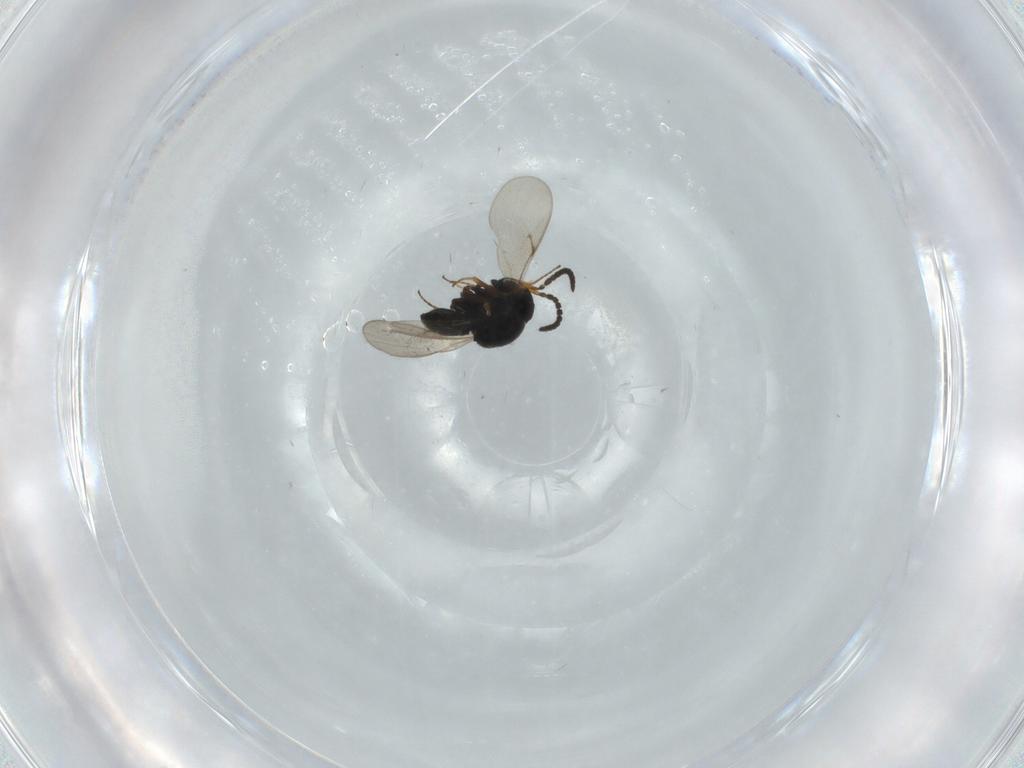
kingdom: Animalia
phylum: Arthropoda
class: Insecta
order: Hymenoptera
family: Scelionidae
